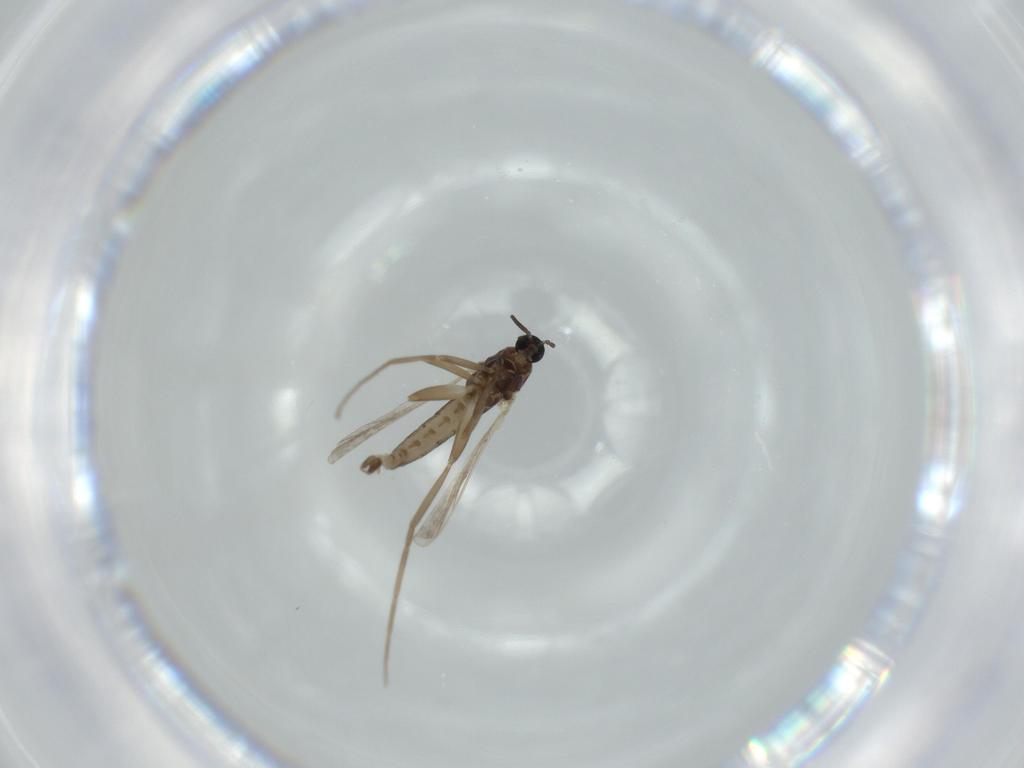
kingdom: Animalia
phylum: Arthropoda
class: Insecta
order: Diptera
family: Cecidomyiidae
